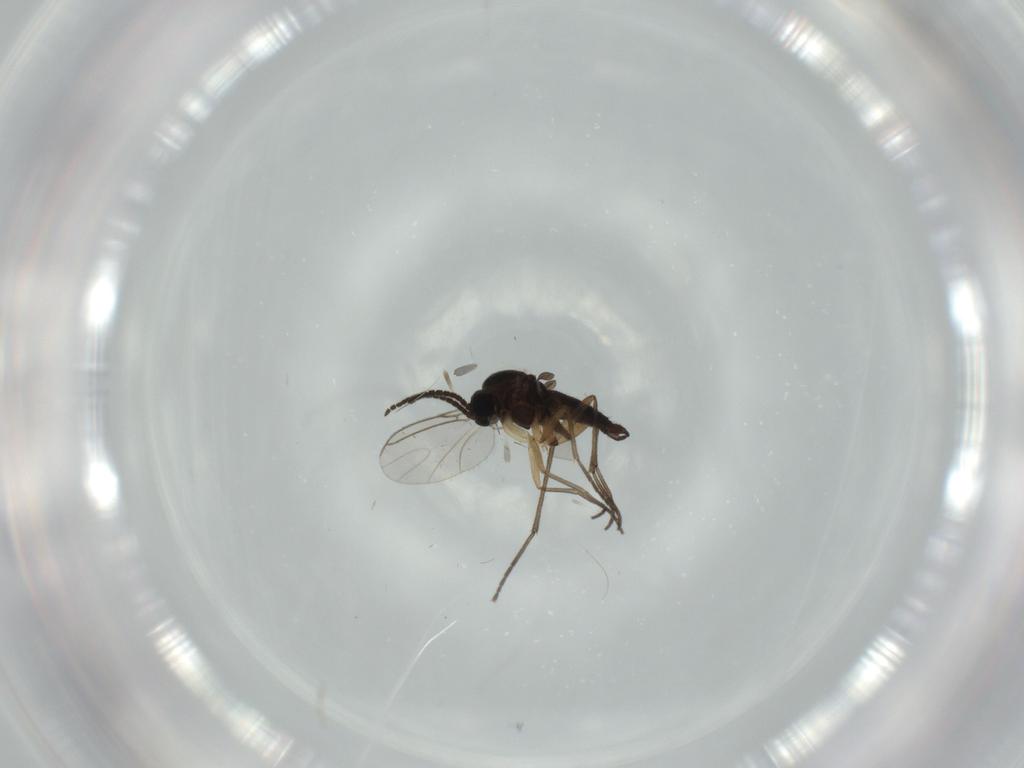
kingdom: Animalia
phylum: Arthropoda
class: Insecta
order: Diptera
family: Sciaridae
